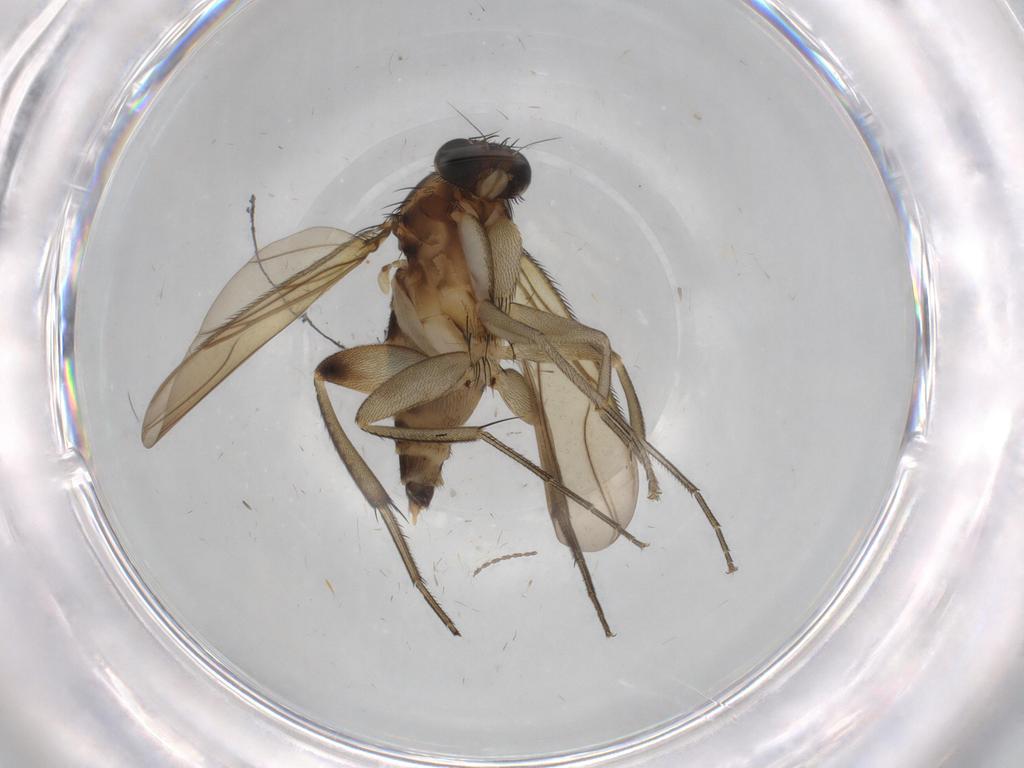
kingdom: Animalia
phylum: Arthropoda
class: Insecta
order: Diptera
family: Phoridae
